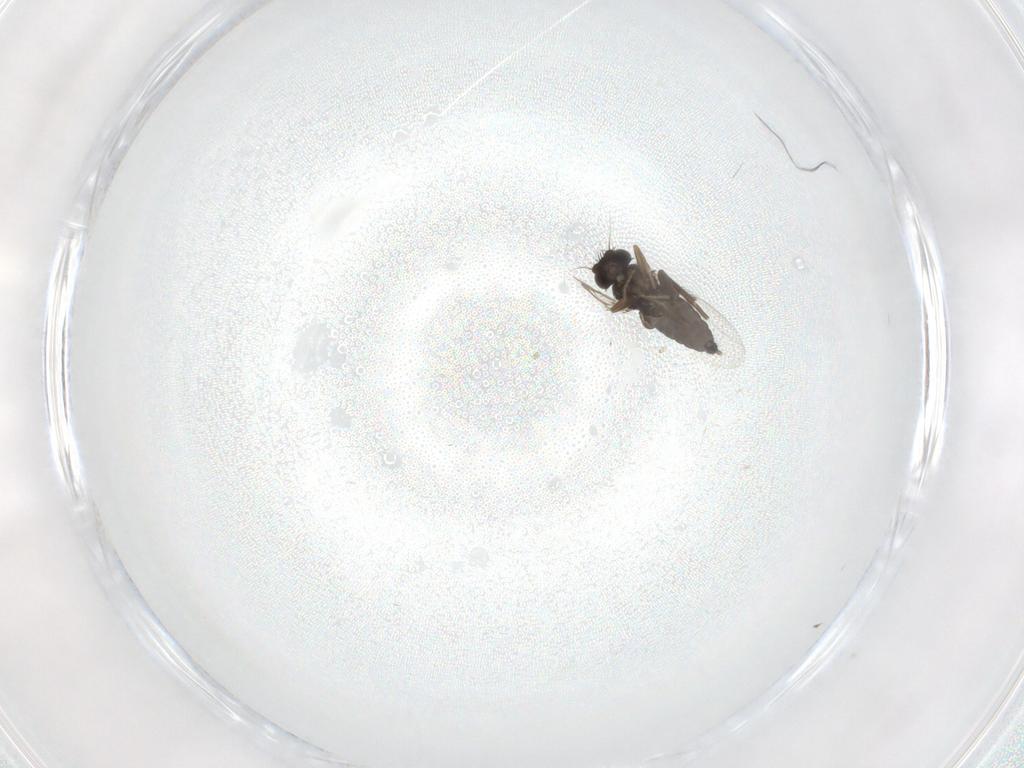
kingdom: Animalia
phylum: Arthropoda
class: Insecta
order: Diptera
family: Phoridae
